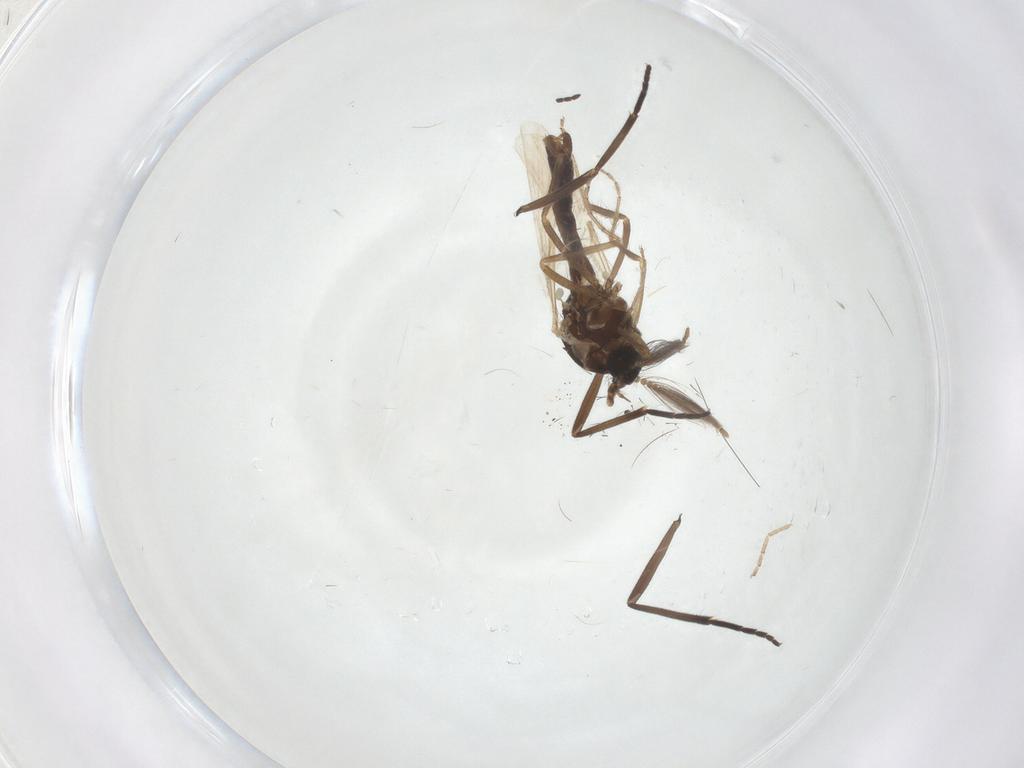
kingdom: Animalia
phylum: Arthropoda
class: Insecta
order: Diptera
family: Ceratopogonidae
